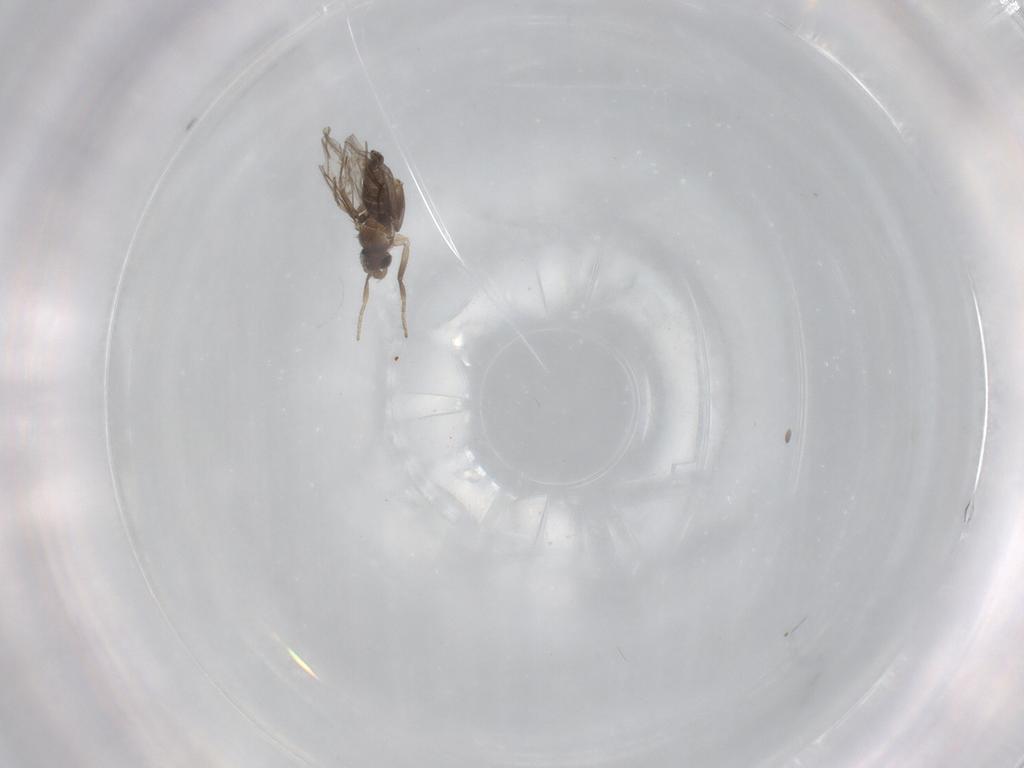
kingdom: Animalia
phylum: Arthropoda
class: Insecta
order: Diptera
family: Phoridae
